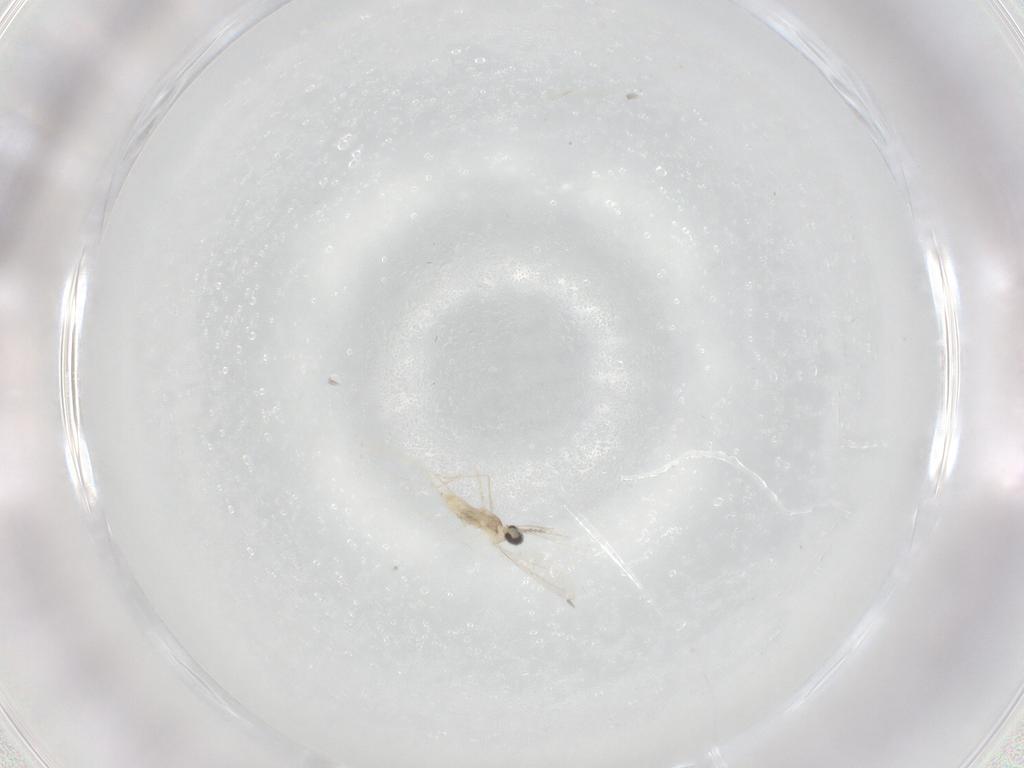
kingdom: Animalia
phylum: Arthropoda
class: Insecta
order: Diptera
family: Cecidomyiidae
